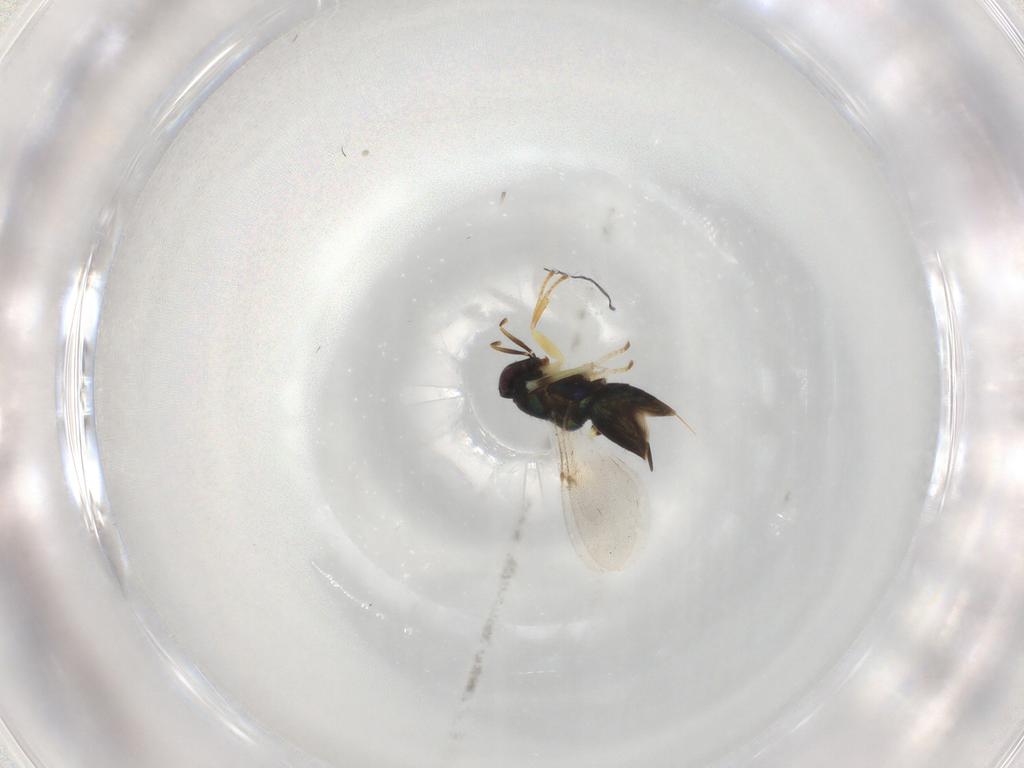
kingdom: Animalia
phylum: Arthropoda
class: Insecta
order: Hymenoptera
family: Encyrtidae
